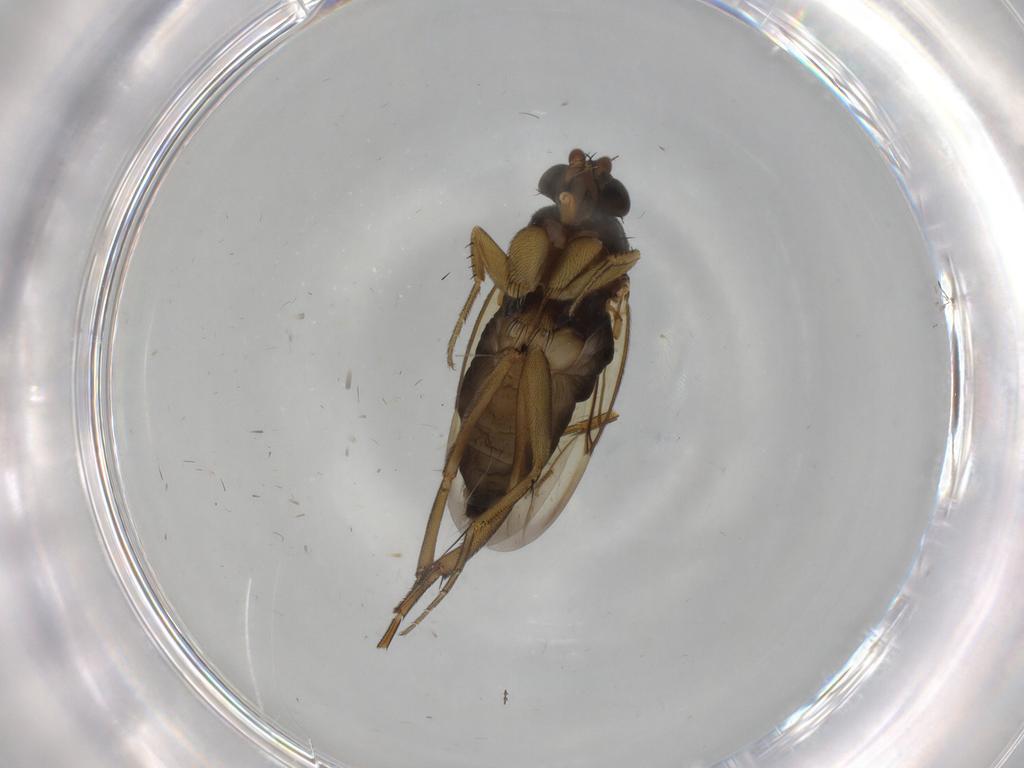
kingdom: Animalia
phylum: Arthropoda
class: Insecta
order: Diptera
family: Phoridae
